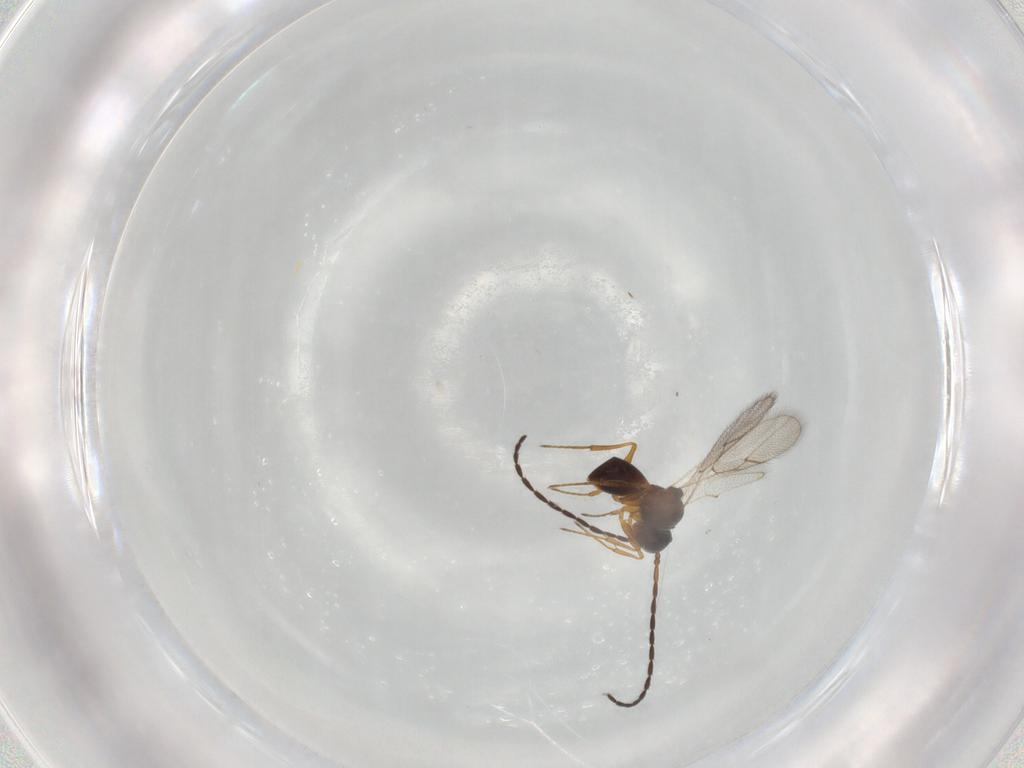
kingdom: Animalia
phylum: Arthropoda
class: Insecta
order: Hymenoptera
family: Figitidae
